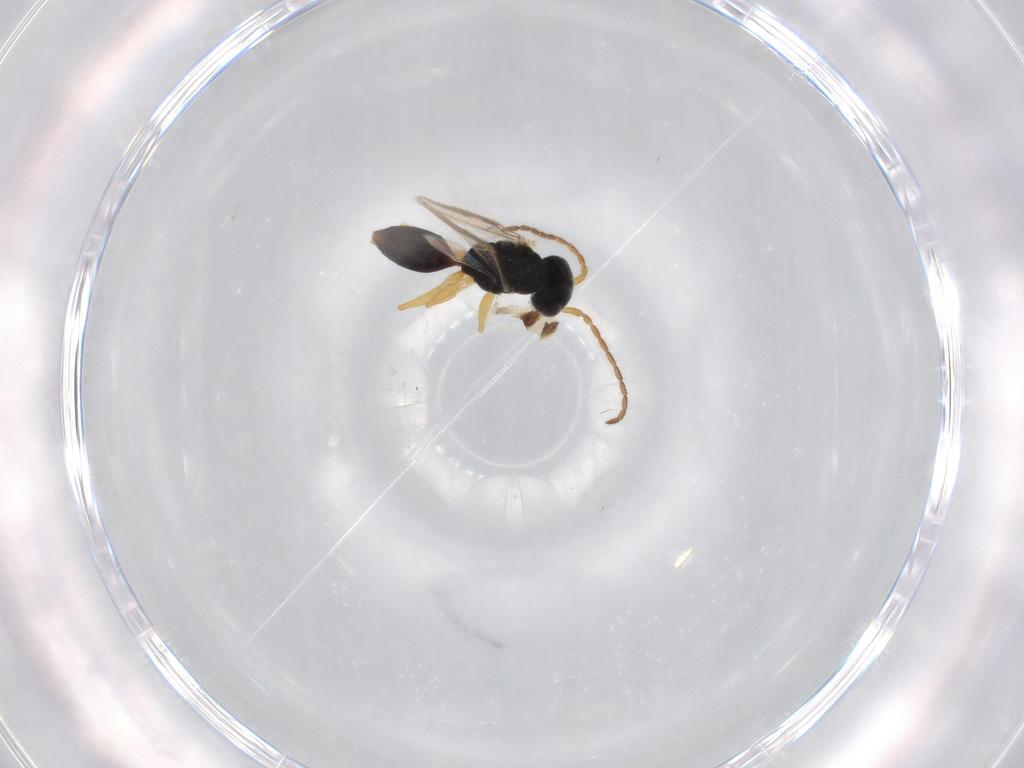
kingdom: Animalia
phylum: Arthropoda
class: Insecta
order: Hymenoptera
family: Dryinidae
